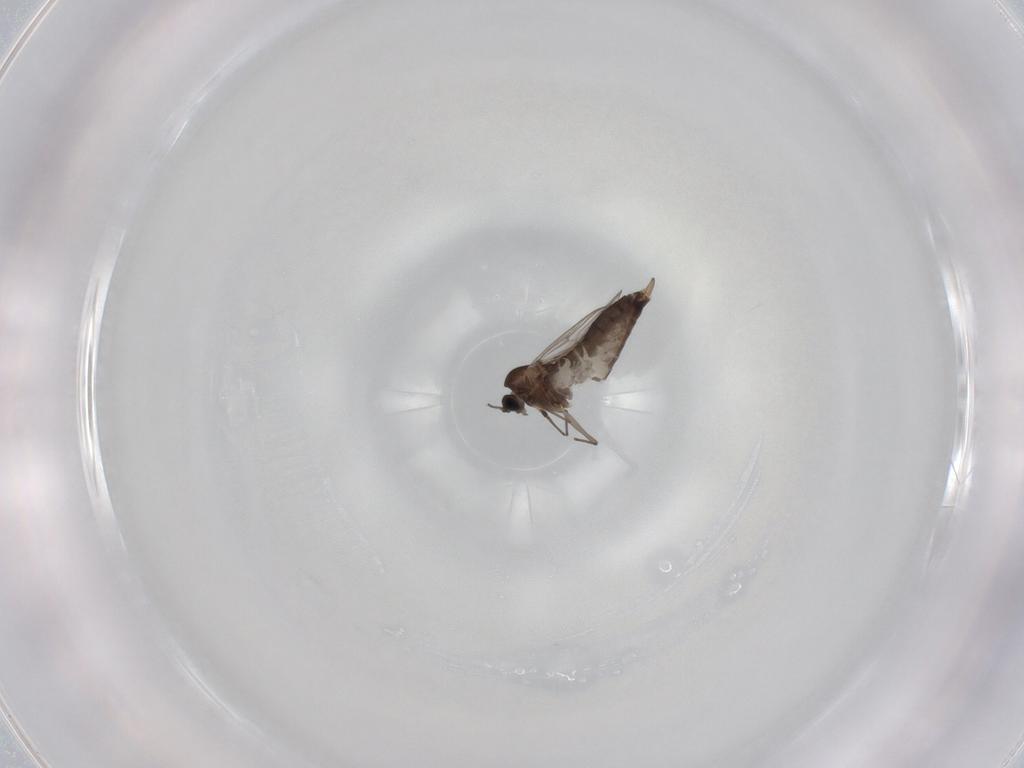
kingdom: Animalia
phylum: Arthropoda
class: Insecta
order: Diptera
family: Chironomidae
